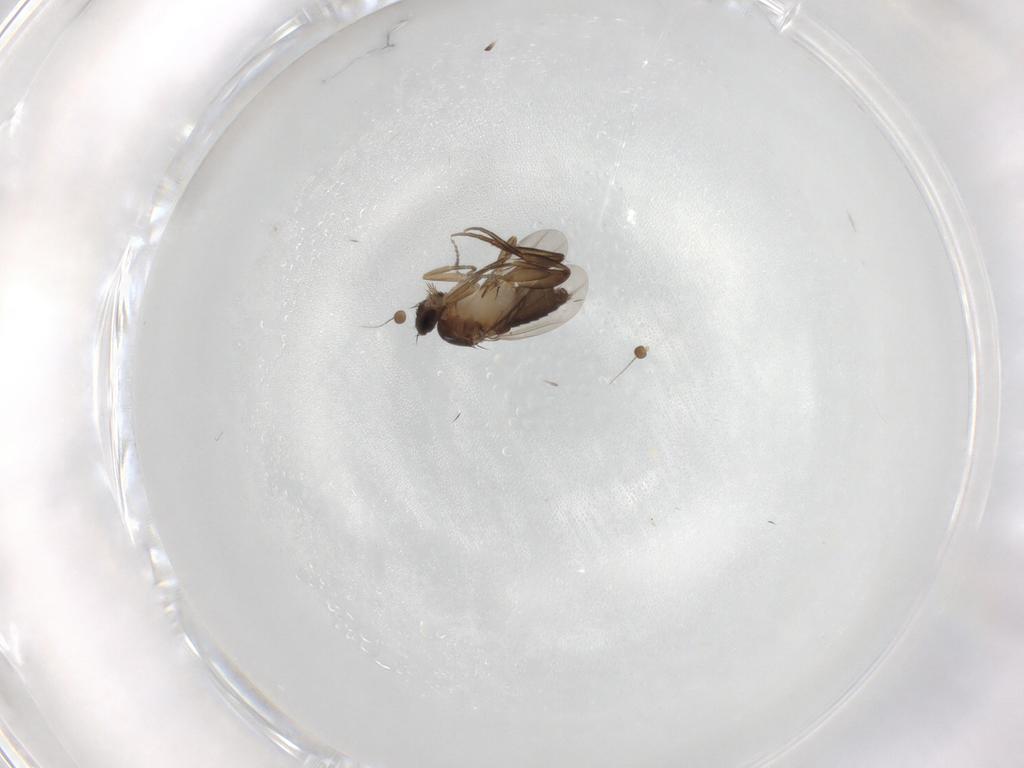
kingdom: Animalia
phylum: Arthropoda
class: Insecta
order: Diptera
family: Phoridae
